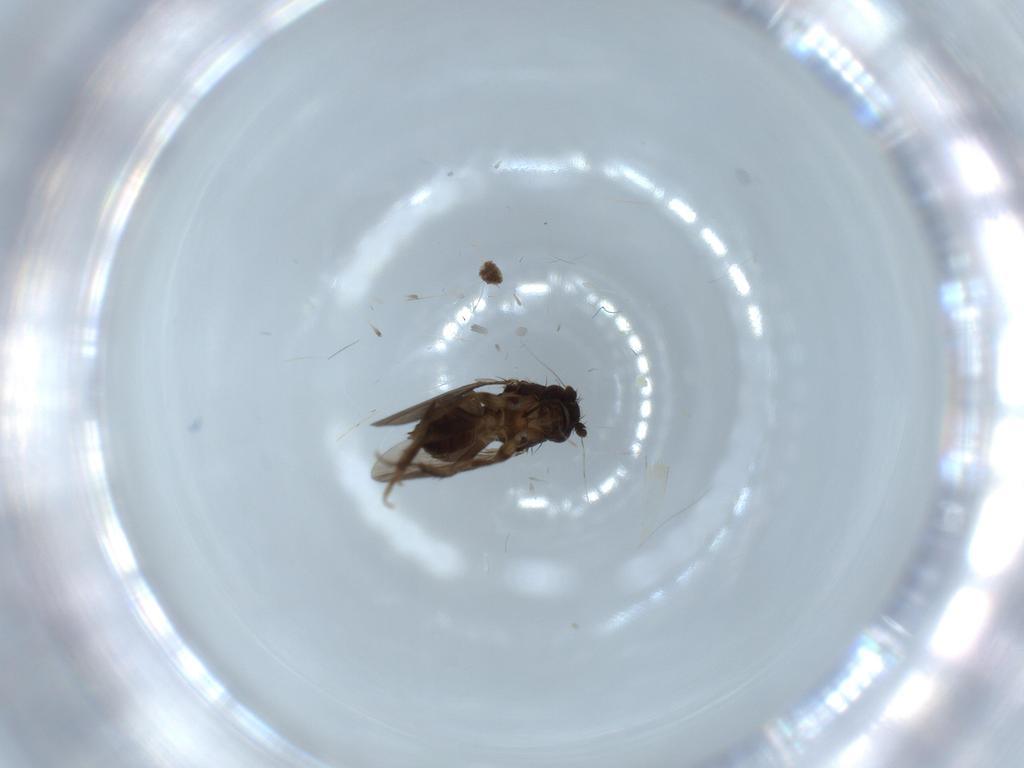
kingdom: Animalia
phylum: Arthropoda
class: Insecta
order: Diptera
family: Sphaeroceridae
